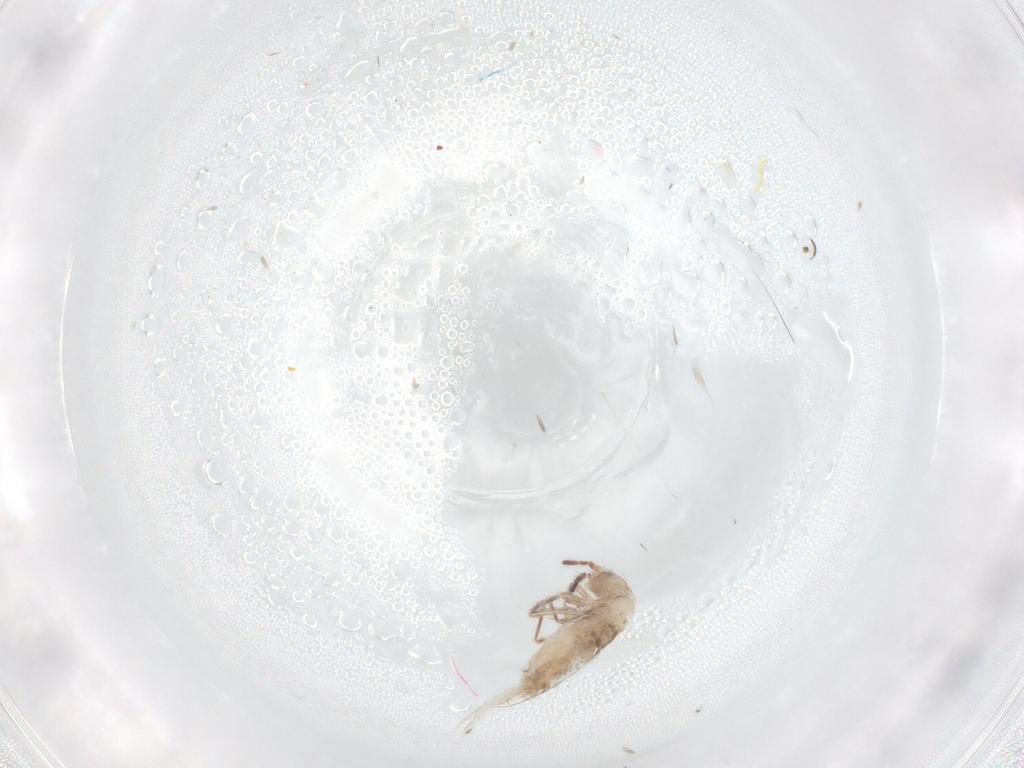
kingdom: Animalia
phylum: Arthropoda
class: Collembola
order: Entomobryomorpha
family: Entomobryidae
